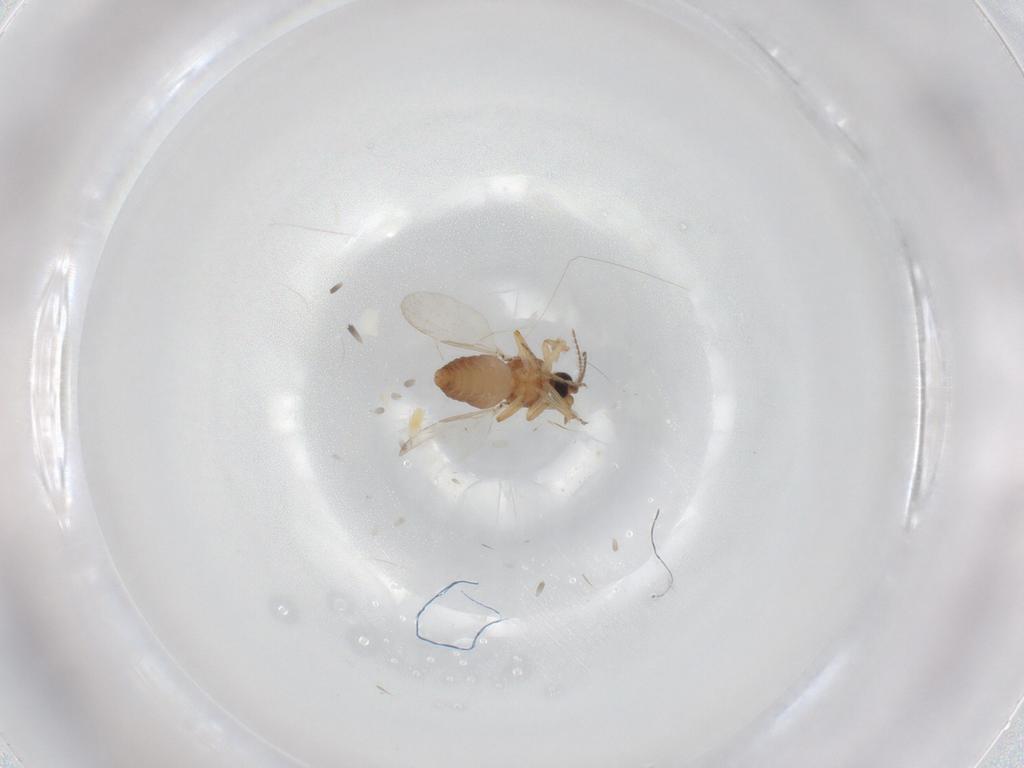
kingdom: Animalia
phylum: Arthropoda
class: Insecta
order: Diptera
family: Ceratopogonidae
